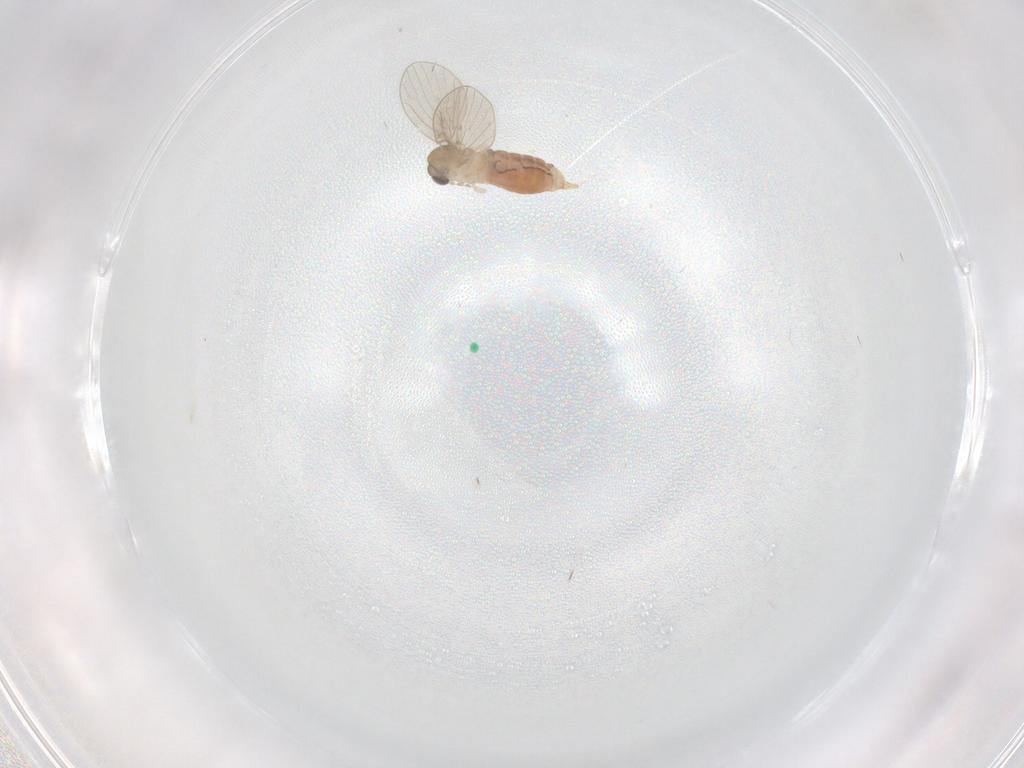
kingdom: Animalia
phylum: Arthropoda
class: Insecta
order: Diptera
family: Psychodidae
